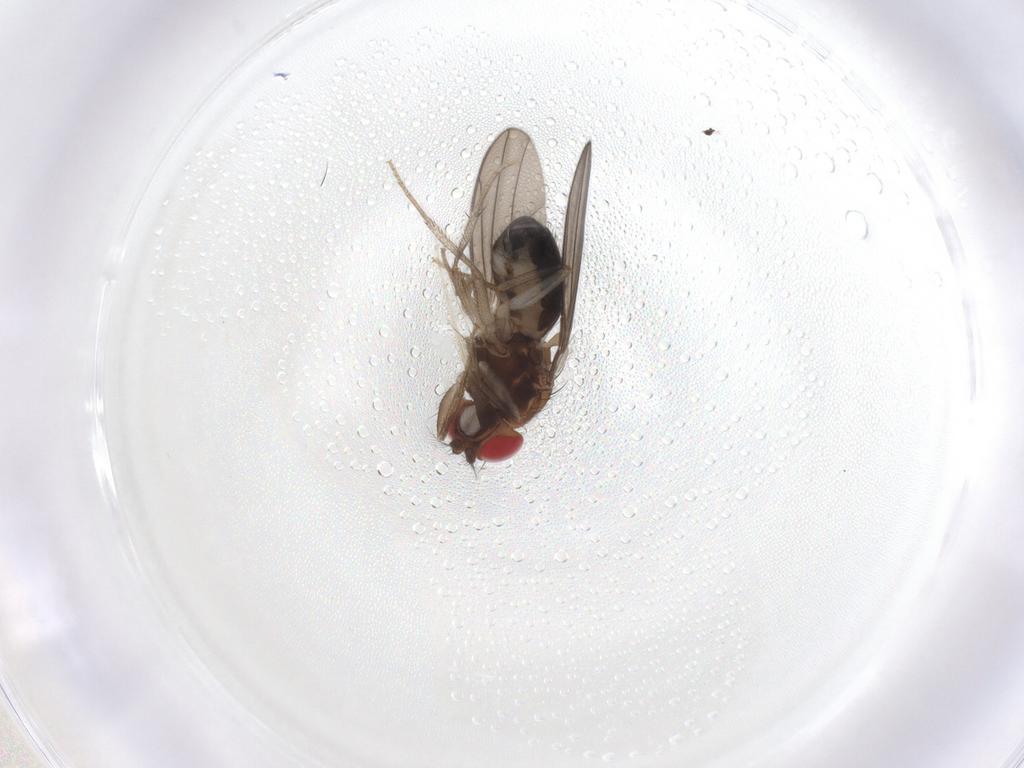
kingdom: Animalia
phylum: Arthropoda
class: Insecta
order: Diptera
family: Drosophilidae
